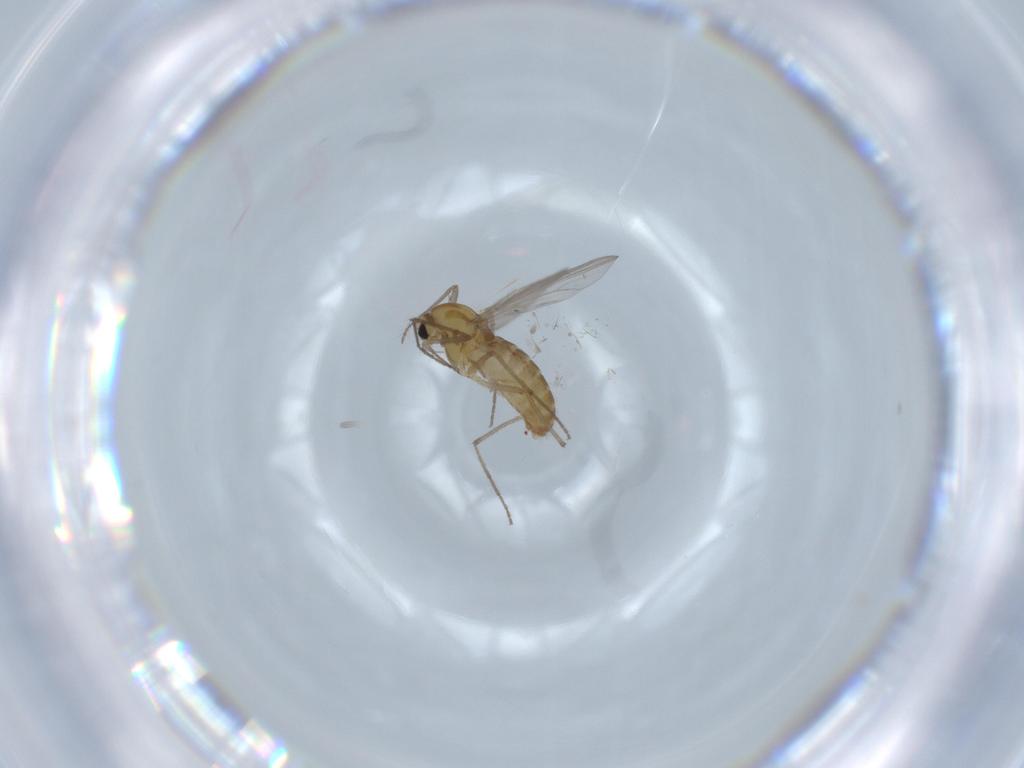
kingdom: Animalia
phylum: Arthropoda
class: Insecta
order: Diptera
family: Chironomidae
